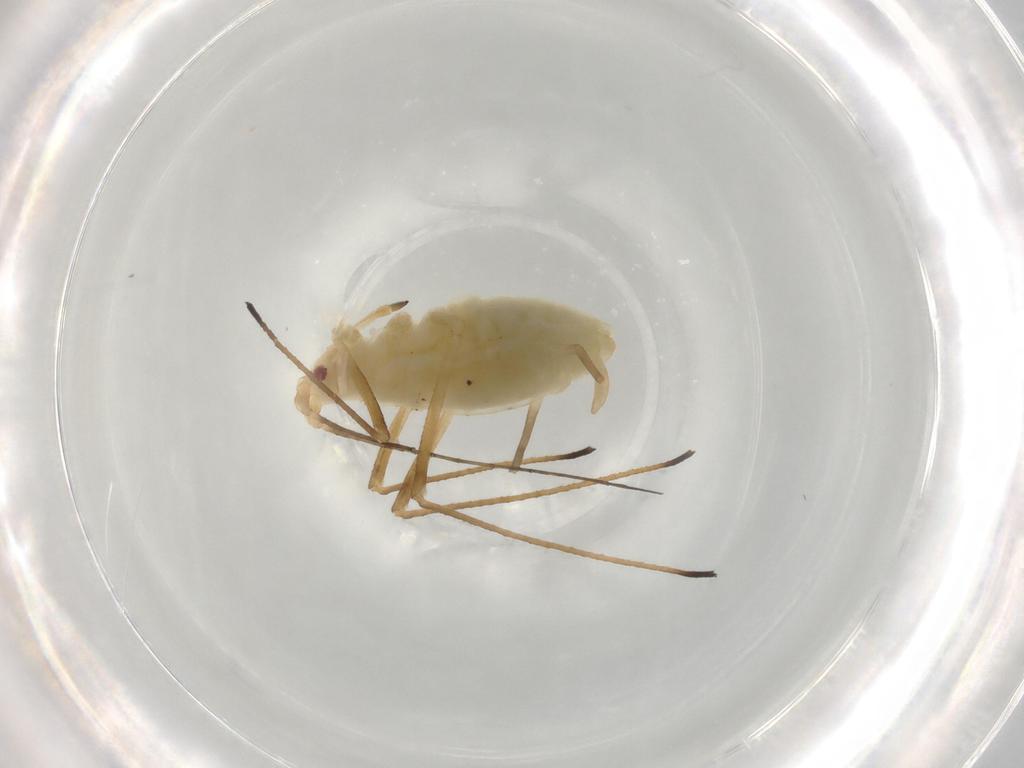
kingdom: Animalia
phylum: Arthropoda
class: Insecta
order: Hemiptera
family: Aphididae
